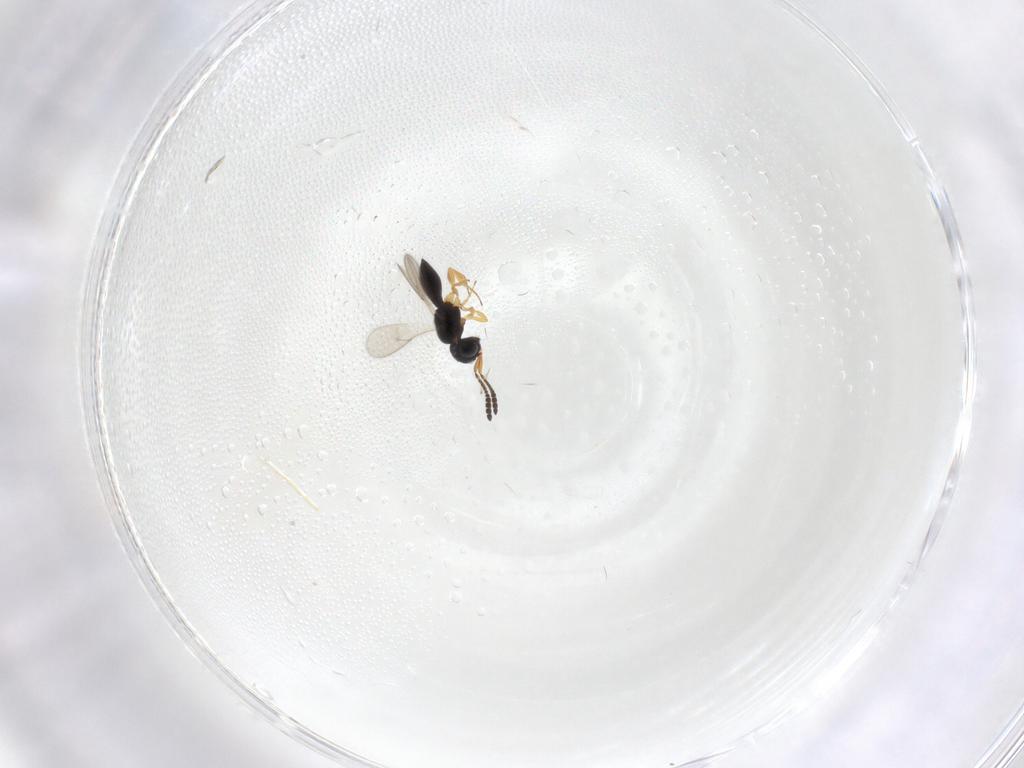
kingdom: Animalia
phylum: Arthropoda
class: Insecta
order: Hymenoptera
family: Scelionidae
